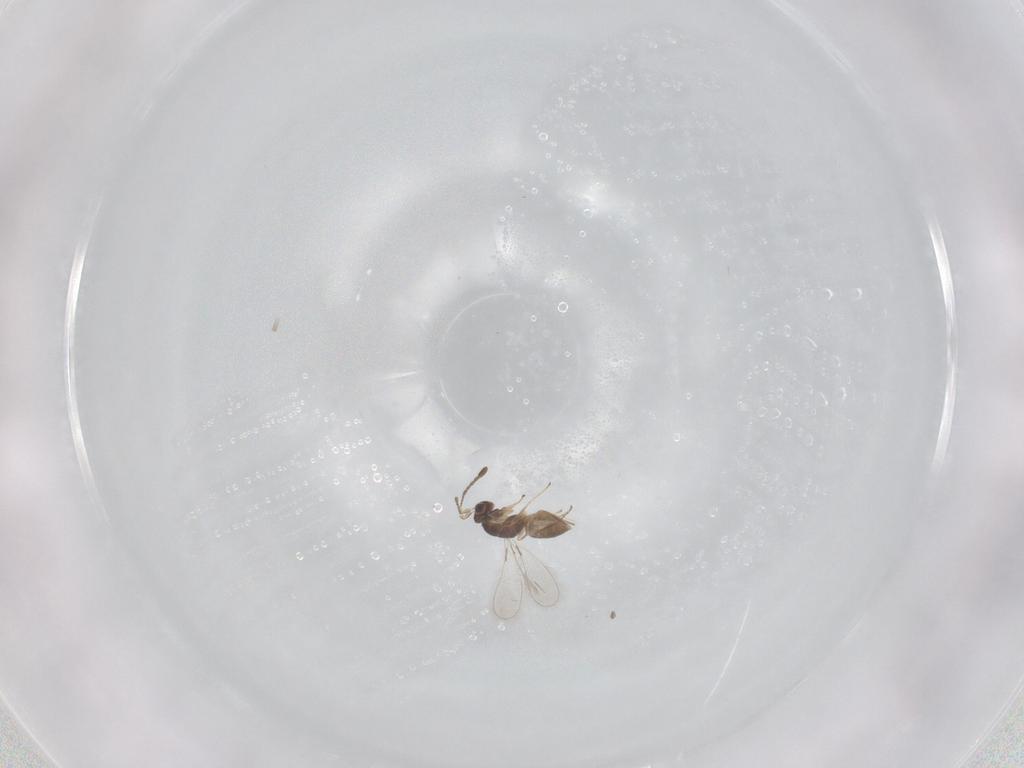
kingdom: Animalia
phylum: Arthropoda
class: Insecta
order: Hymenoptera
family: Mymaridae
